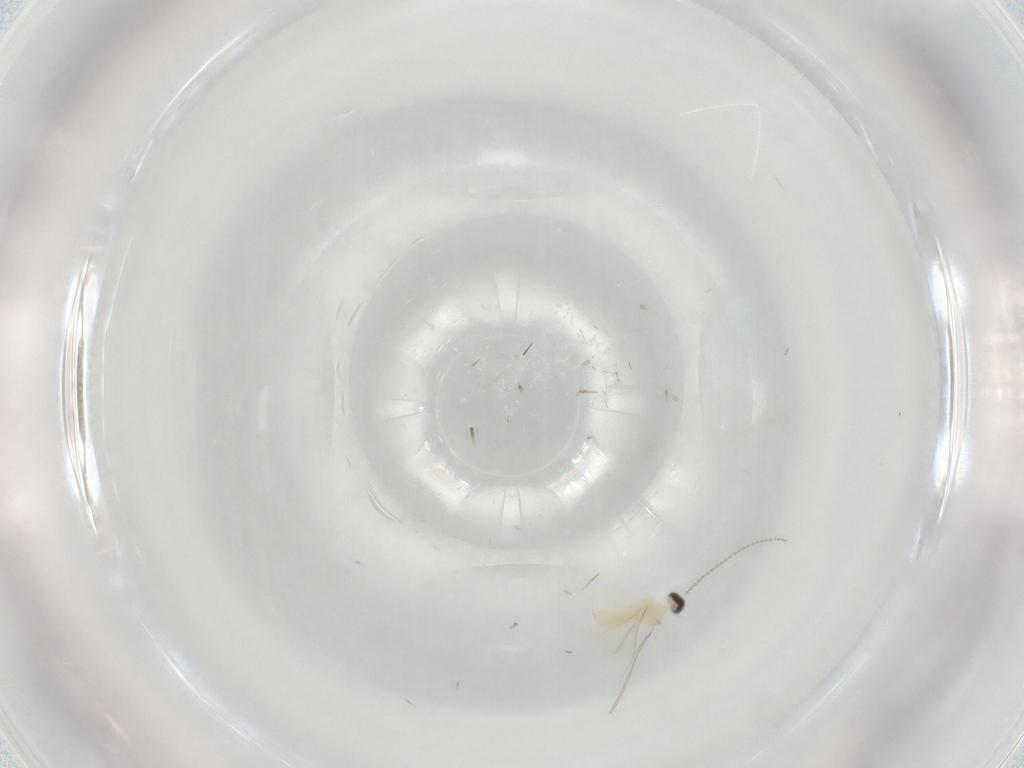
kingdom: Animalia
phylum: Arthropoda
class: Insecta
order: Diptera
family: Cecidomyiidae
